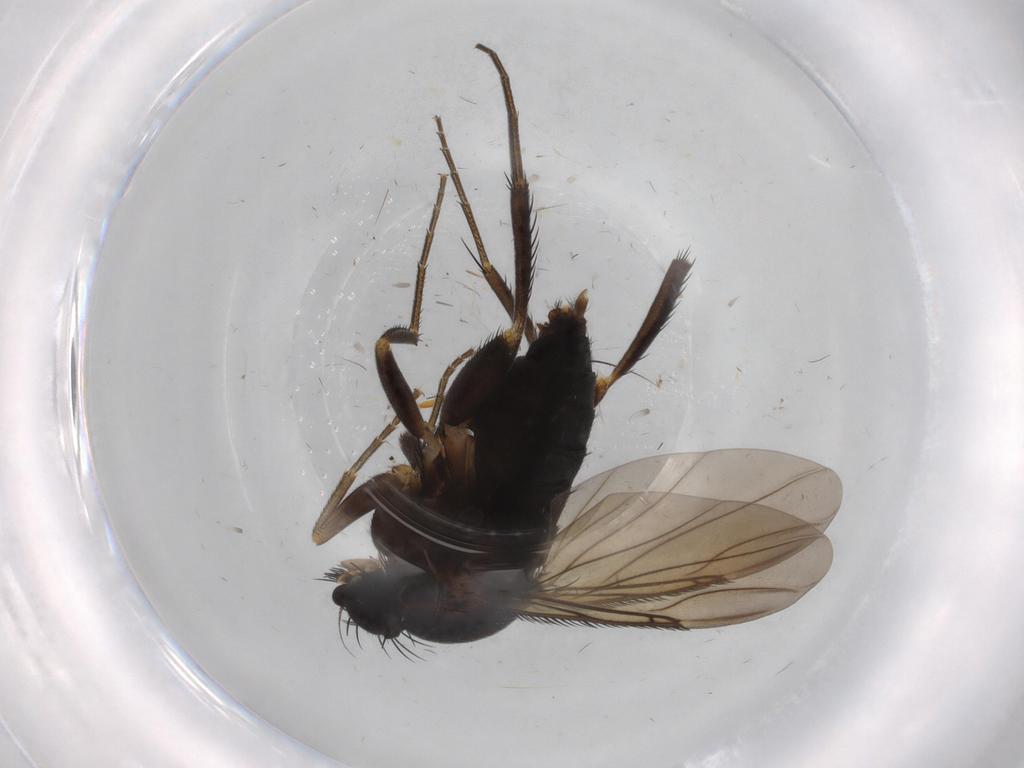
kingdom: Animalia
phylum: Arthropoda
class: Insecta
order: Diptera
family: Phoridae
